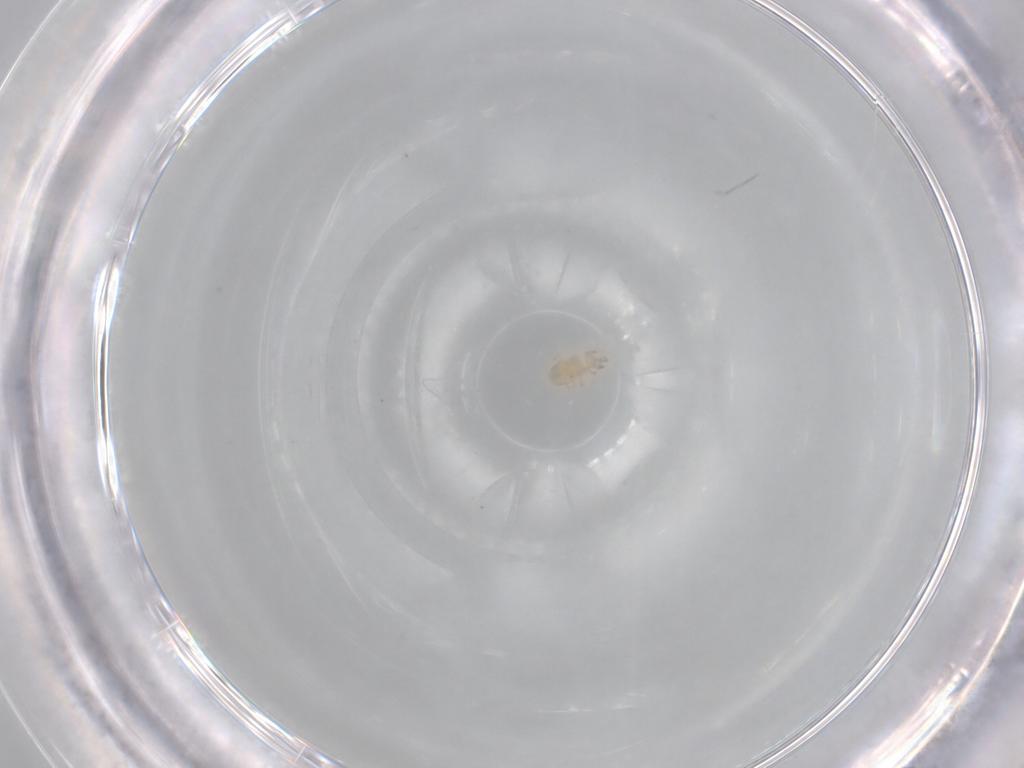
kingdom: Animalia
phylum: Arthropoda
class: Arachnida
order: Mesostigmata
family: Phytoseiidae
